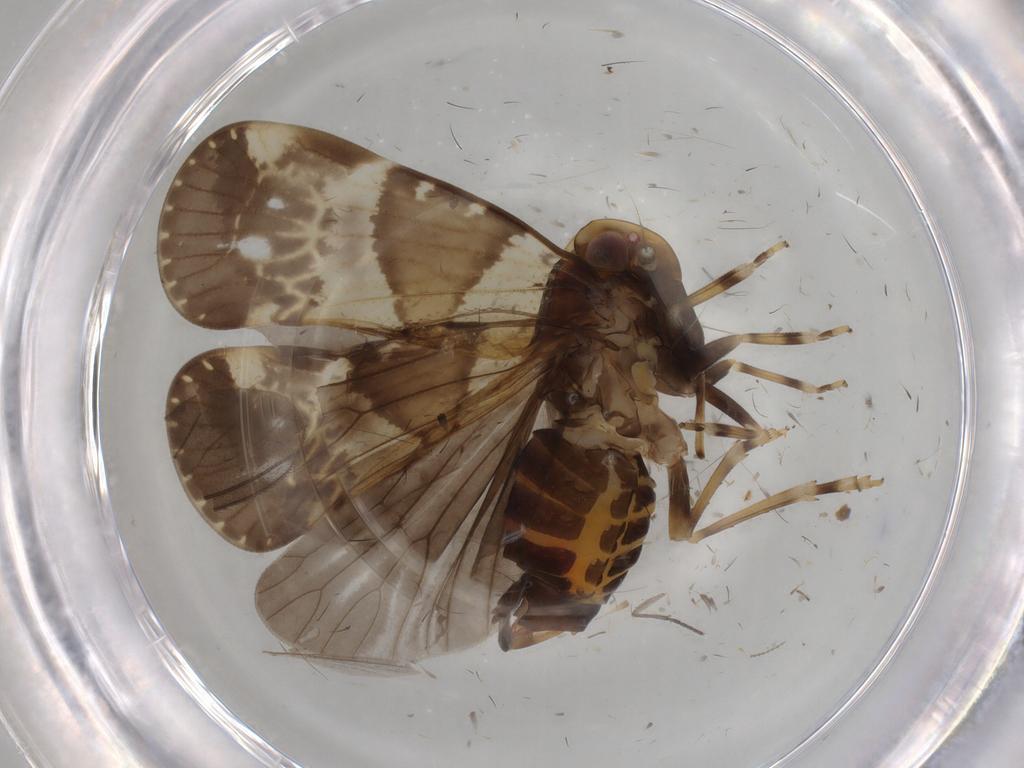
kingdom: Animalia
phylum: Arthropoda
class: Insecta
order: Hemiptera
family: Cixiidae
